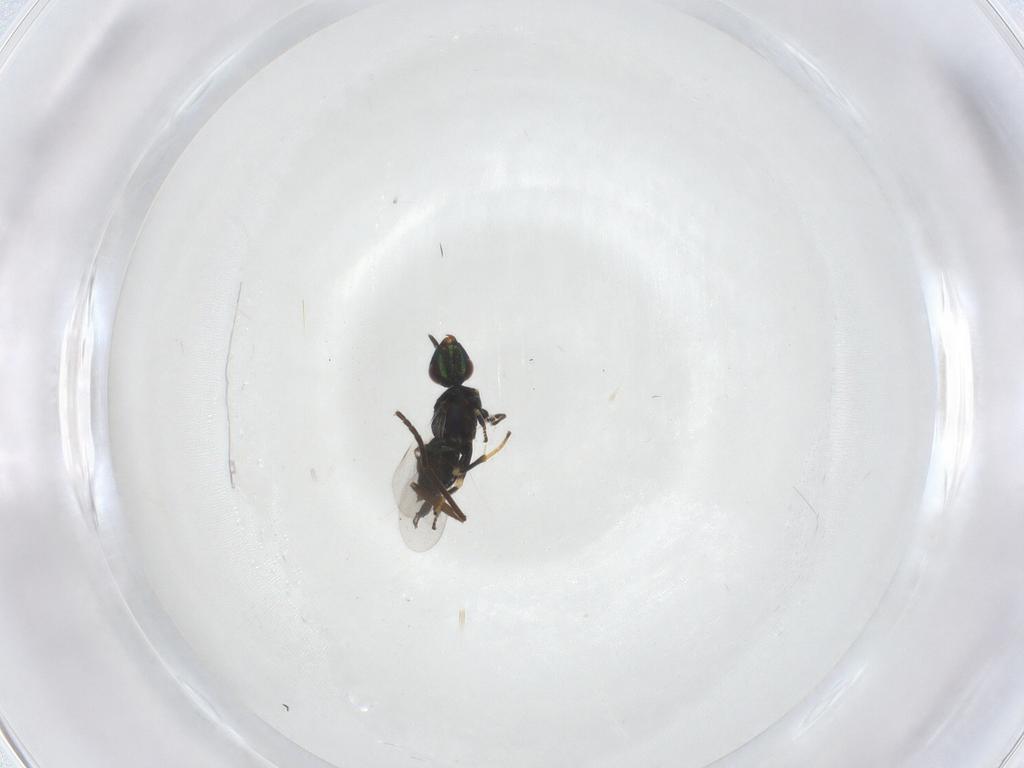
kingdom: Animalia
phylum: Arthropoda
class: Insecta
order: Hymenoptera
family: Encyrtidae
